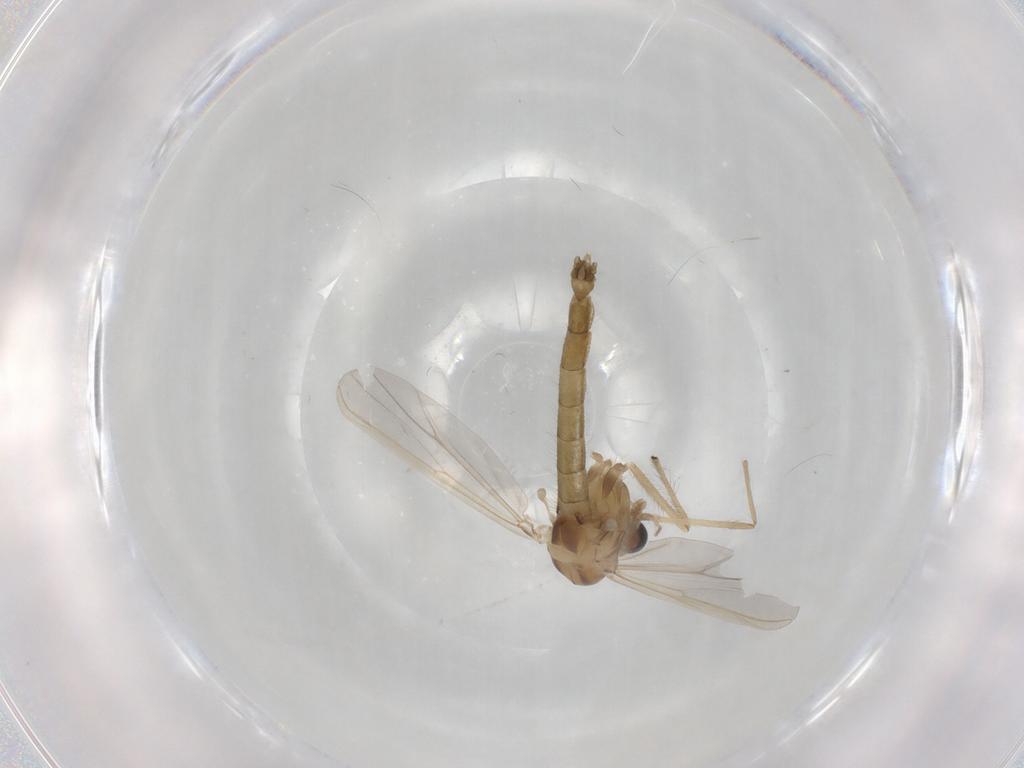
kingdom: Animalia
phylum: Arthropoda
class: Insecta
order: Diptera
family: Chironomidae
